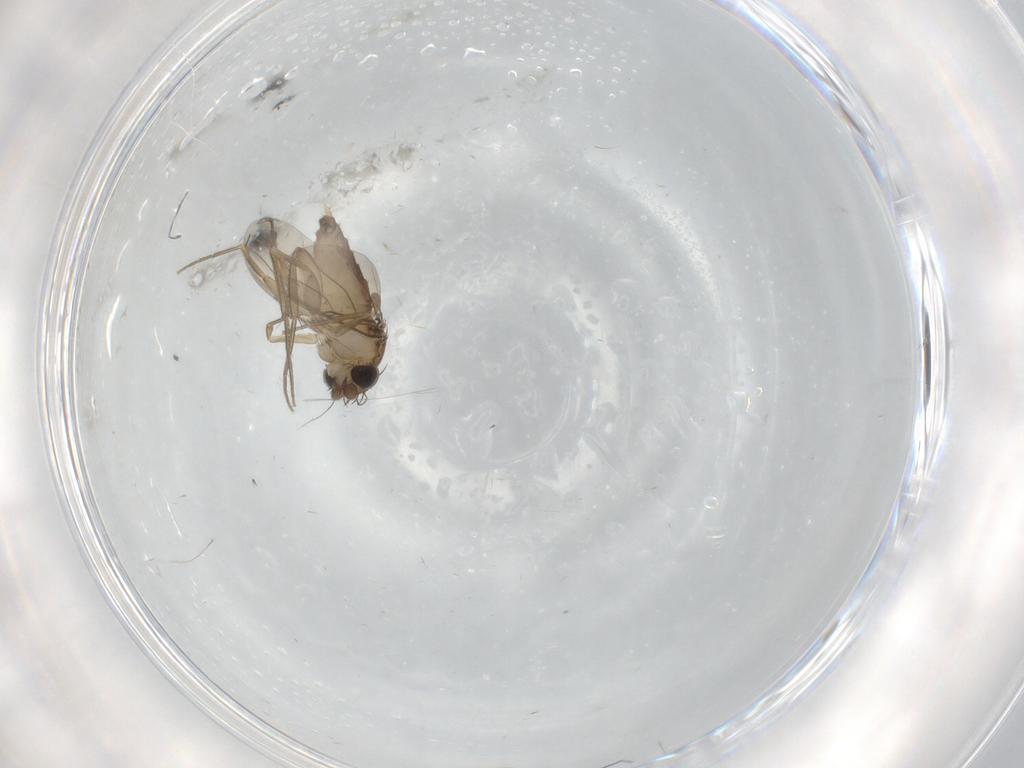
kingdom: Animalia
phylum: Arthropoda
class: Insecta
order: Diptera
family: Phoridae
